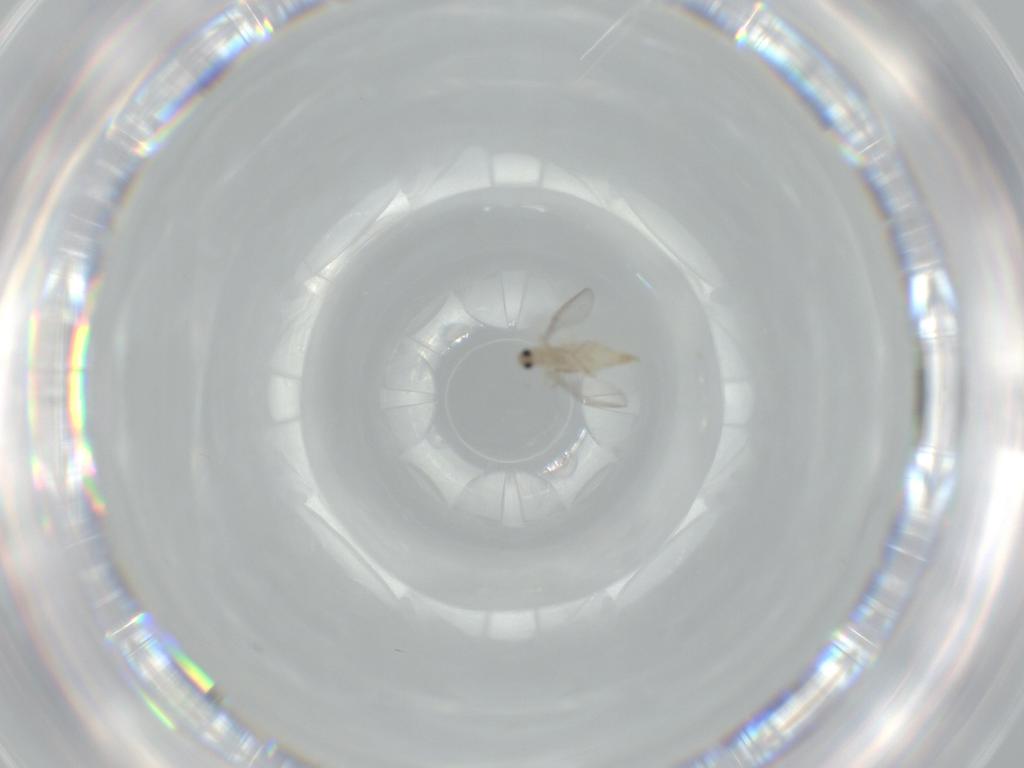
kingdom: Animalia
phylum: Arthropoda
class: Insecta
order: Diptera
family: Cecidomyiidae
